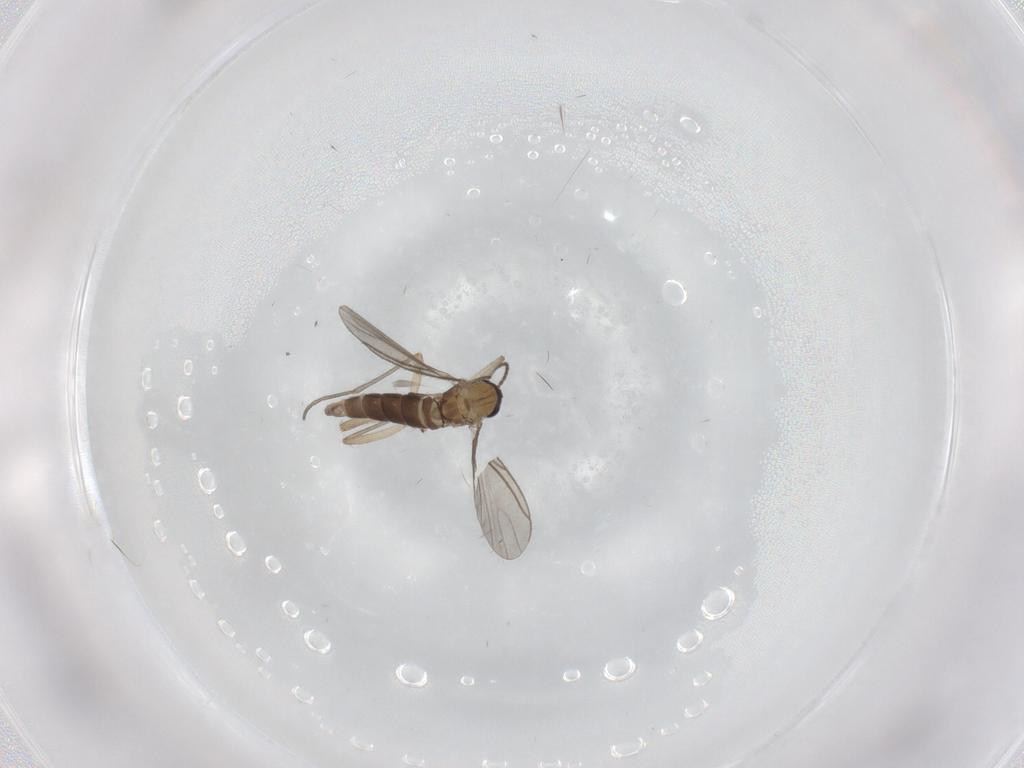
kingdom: Animalia
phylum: Arthropoda
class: Insecta
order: Diptera
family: Sciaridae
